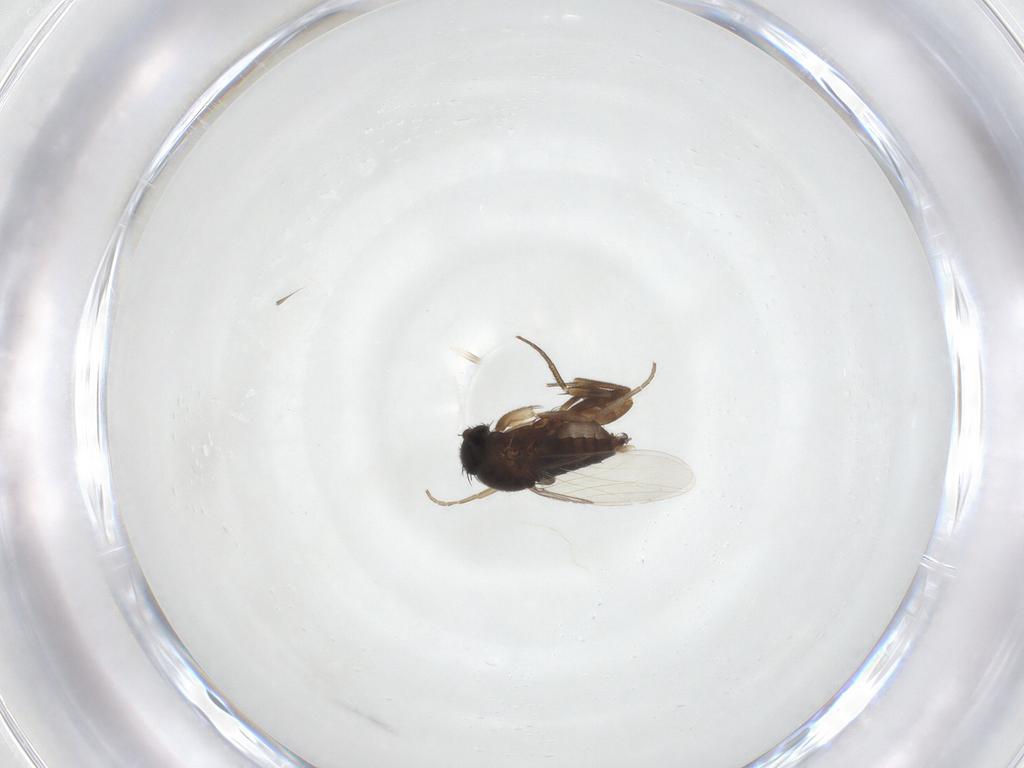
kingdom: Animalia
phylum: Arthropoda
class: Insecta
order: Diptera
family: Phoridae
